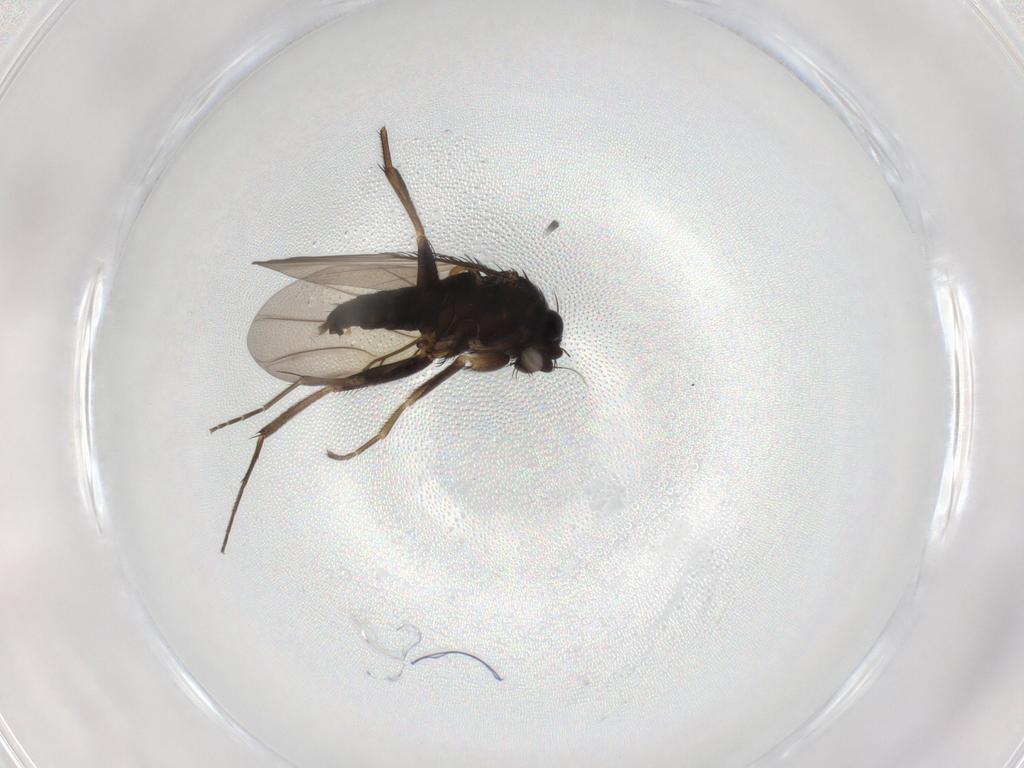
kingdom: Animalia
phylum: Arthropoda
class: Insecta
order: Diptera
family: Phoridae
